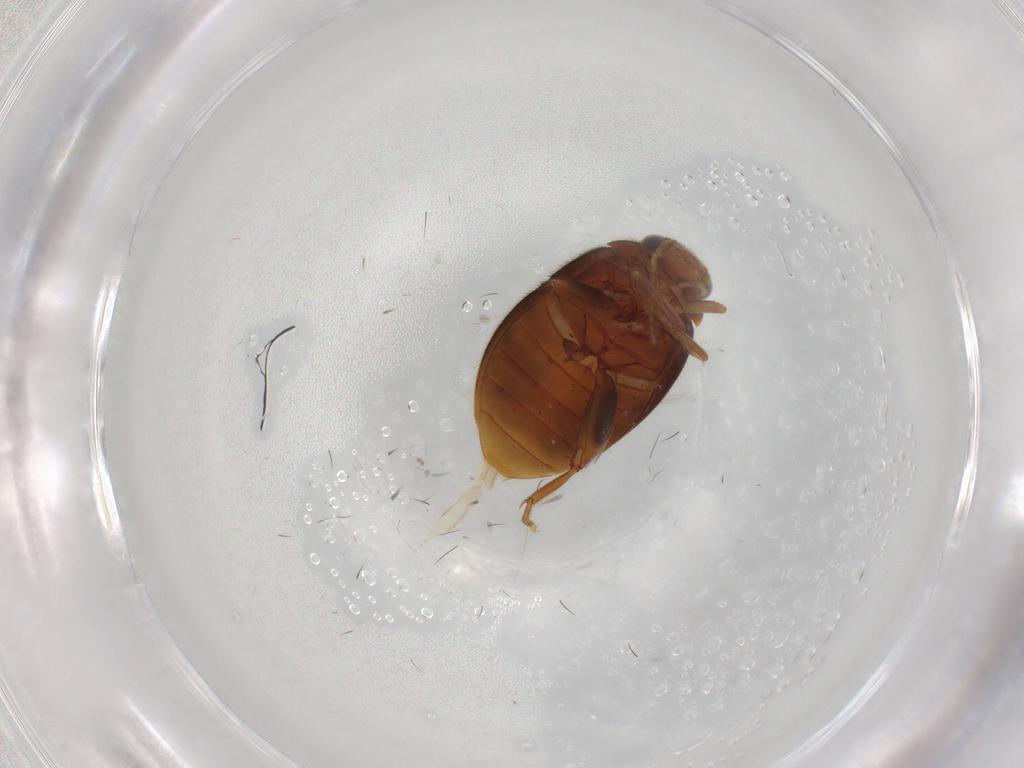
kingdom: Animalia
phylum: Arthropoda
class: Insecta
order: Coleoptera
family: Scirtidae
